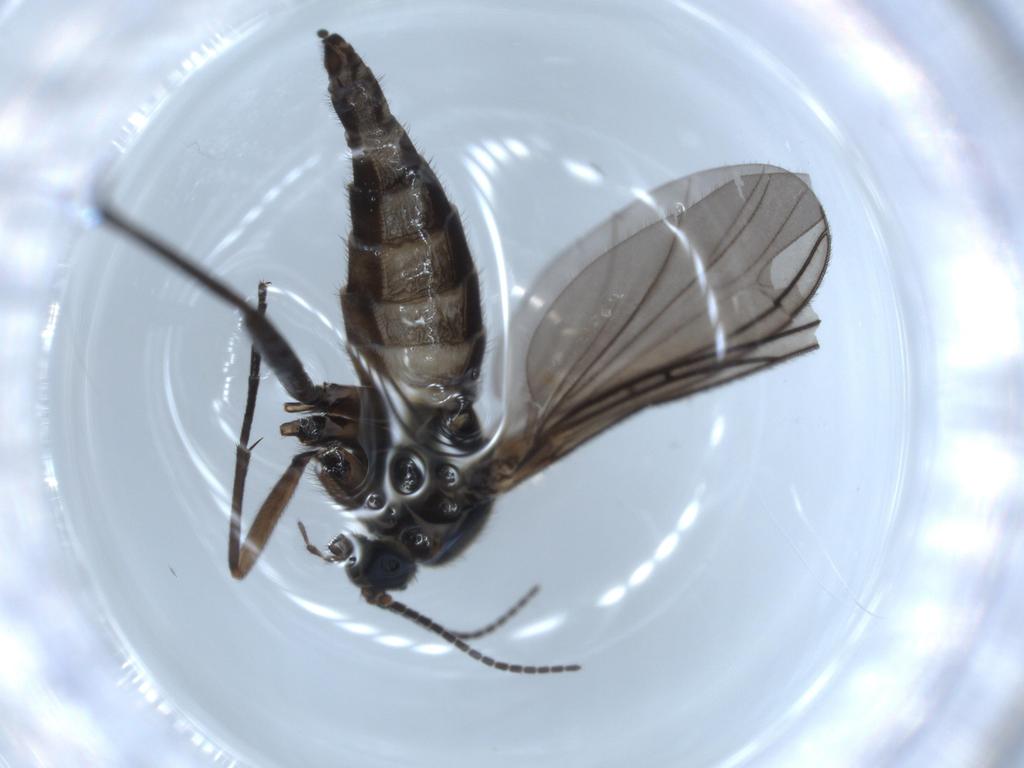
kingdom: Animalia
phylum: Arthropoda
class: Insecta
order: Diptera
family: Sciaridae
